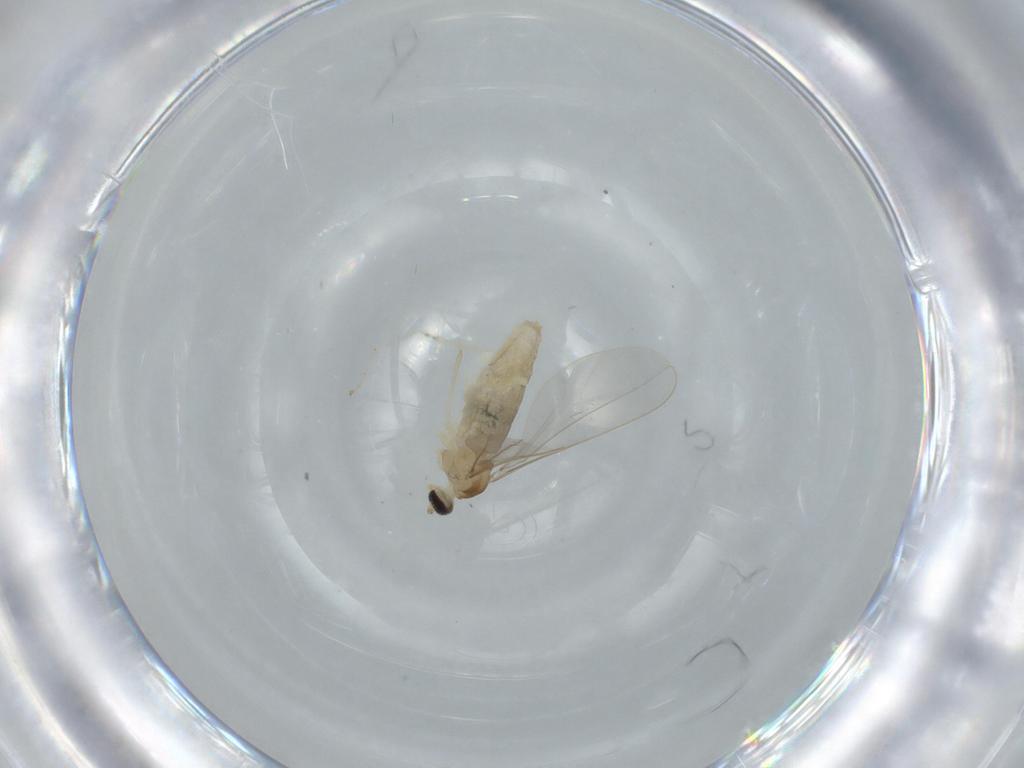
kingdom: Animalia
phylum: Arthropoda
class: Insecta
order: Diptera
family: Cecidomyiidae
